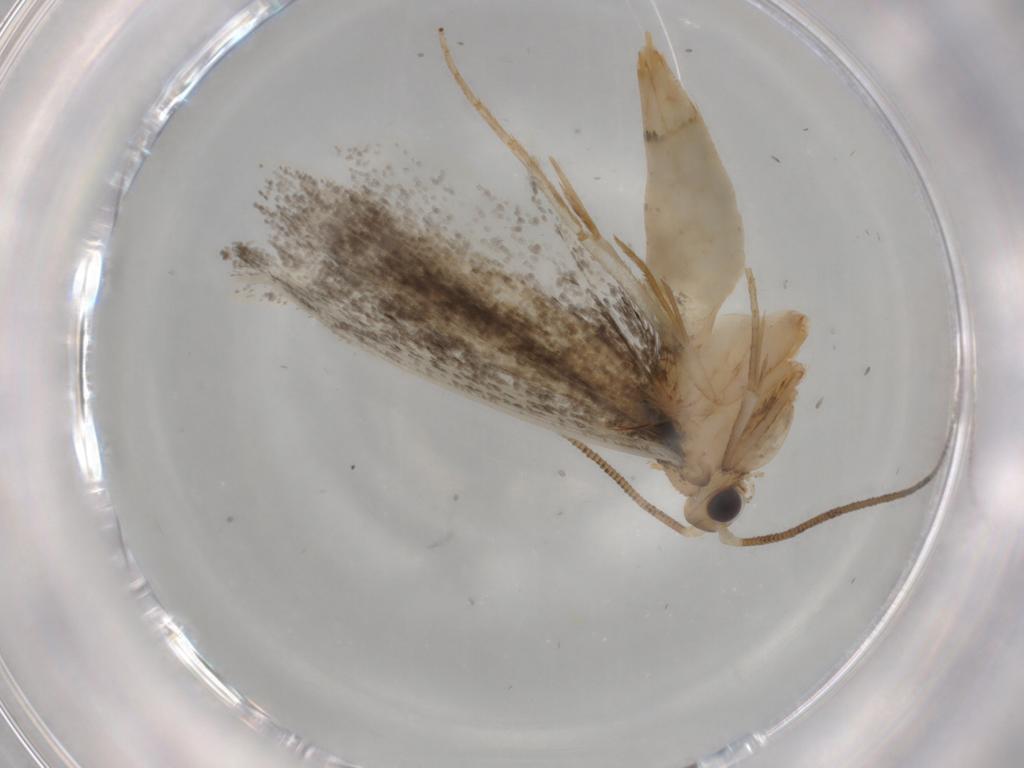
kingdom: Animalia
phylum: Arthropoda
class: Insecta
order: Lepidoptera
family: Tineidae
